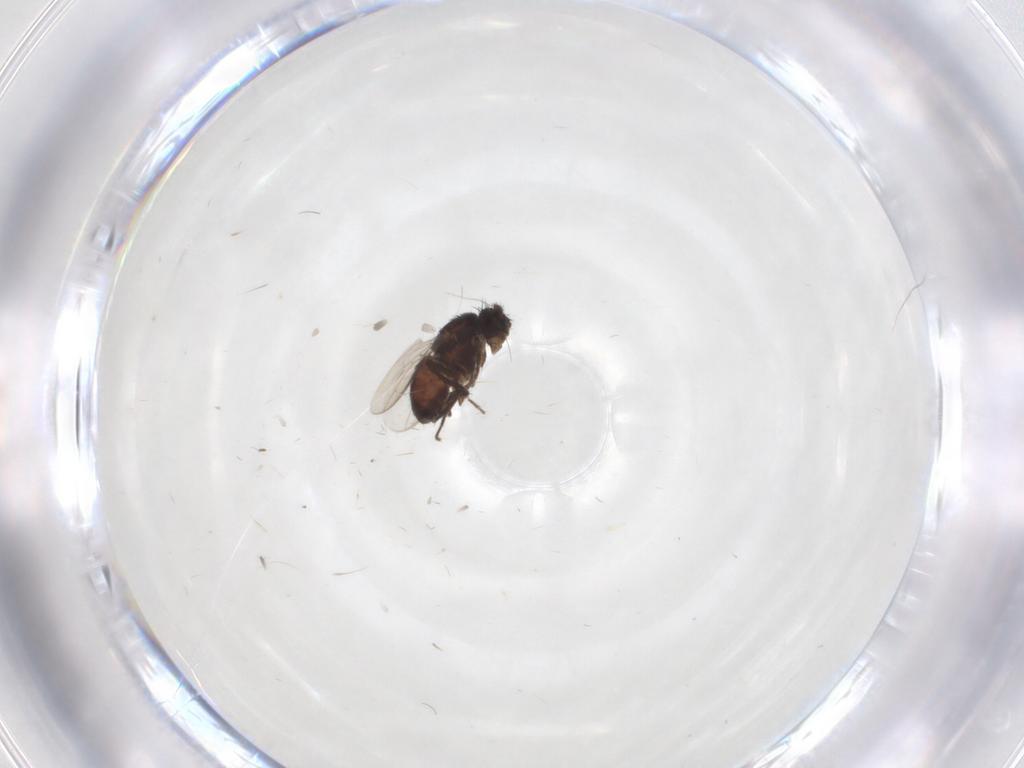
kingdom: Animalia
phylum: Arthropoda
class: Insecta
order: Diptera
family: Sphaeroceridae
